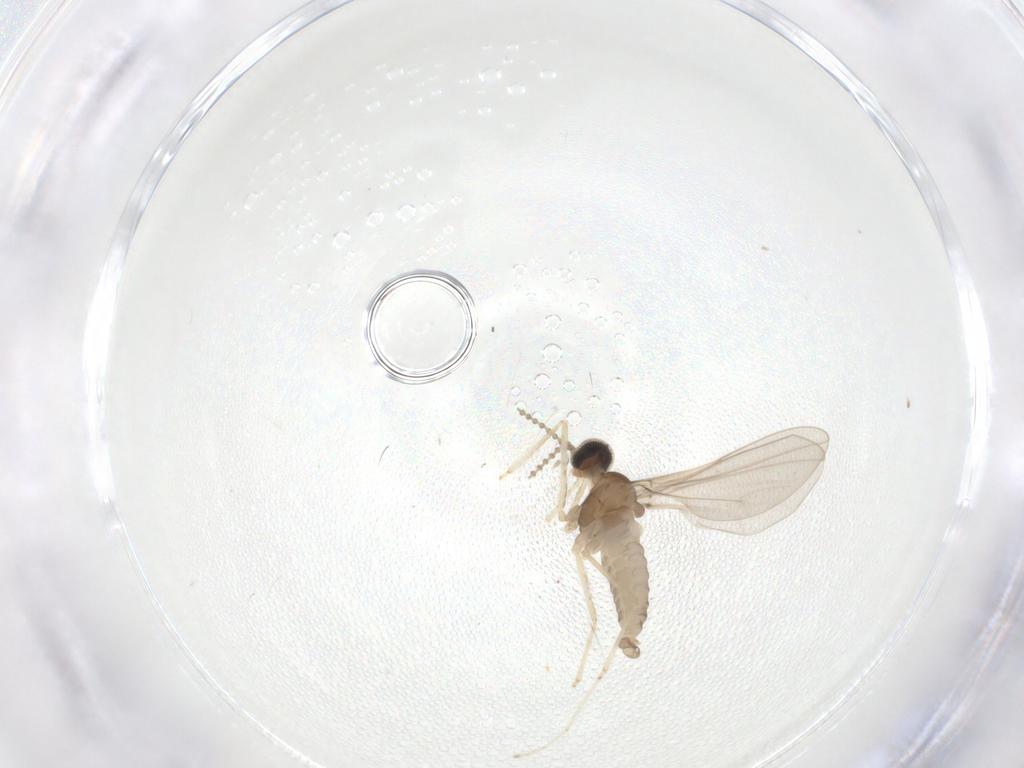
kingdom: Animalia
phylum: Arthropoda
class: Insecta
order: Diptera
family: Cecidomyiidae
